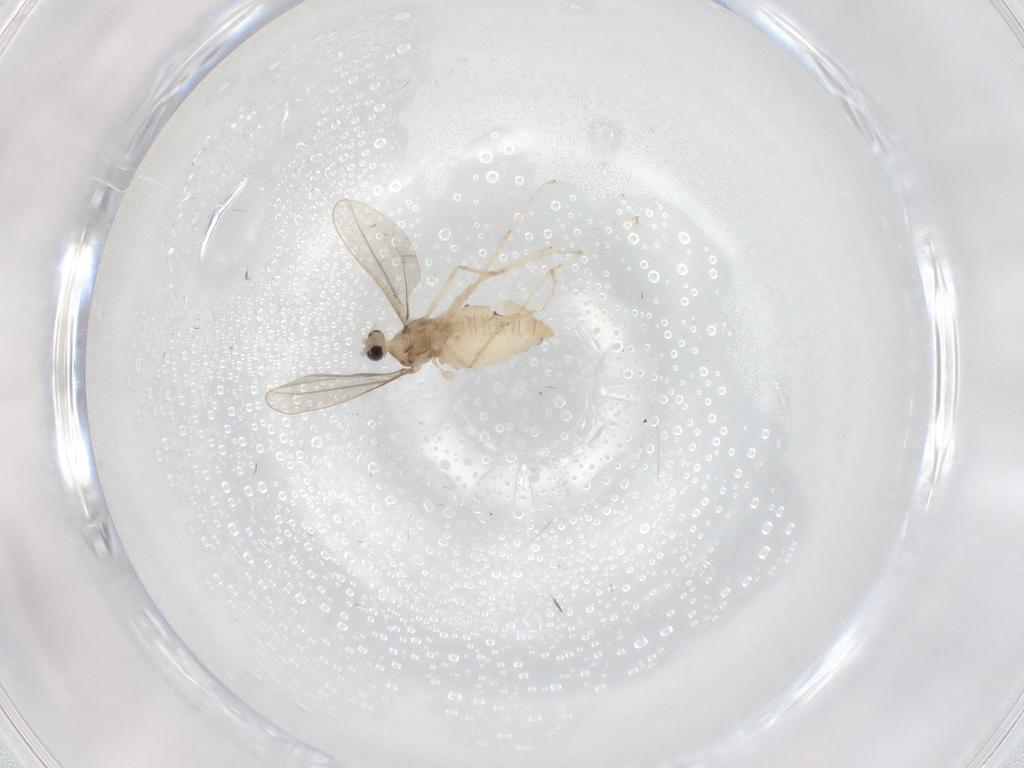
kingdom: Animalia
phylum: Arthropoda
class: Insecta
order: Diptera
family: Phoridae
